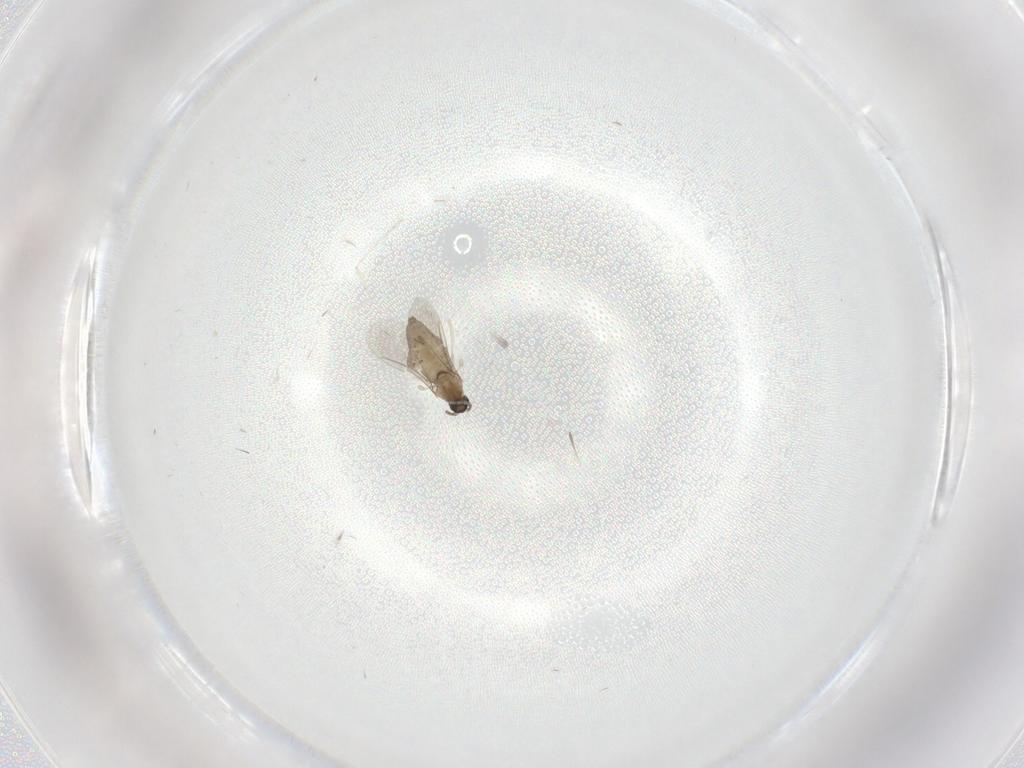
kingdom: Animalia
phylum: Arthropoda
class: Insecta
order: Diptera
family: Cecidomyiidae
